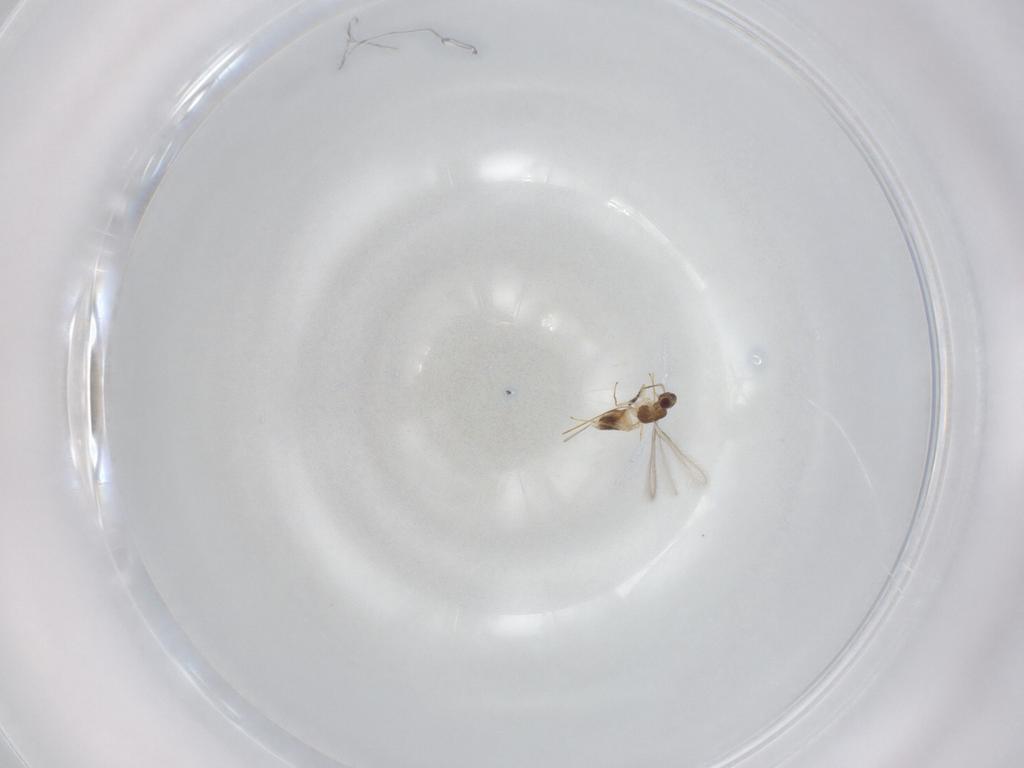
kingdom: Animalia
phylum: Arthropoda
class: Insecta
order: Hymenoptera
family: Mymaridae
